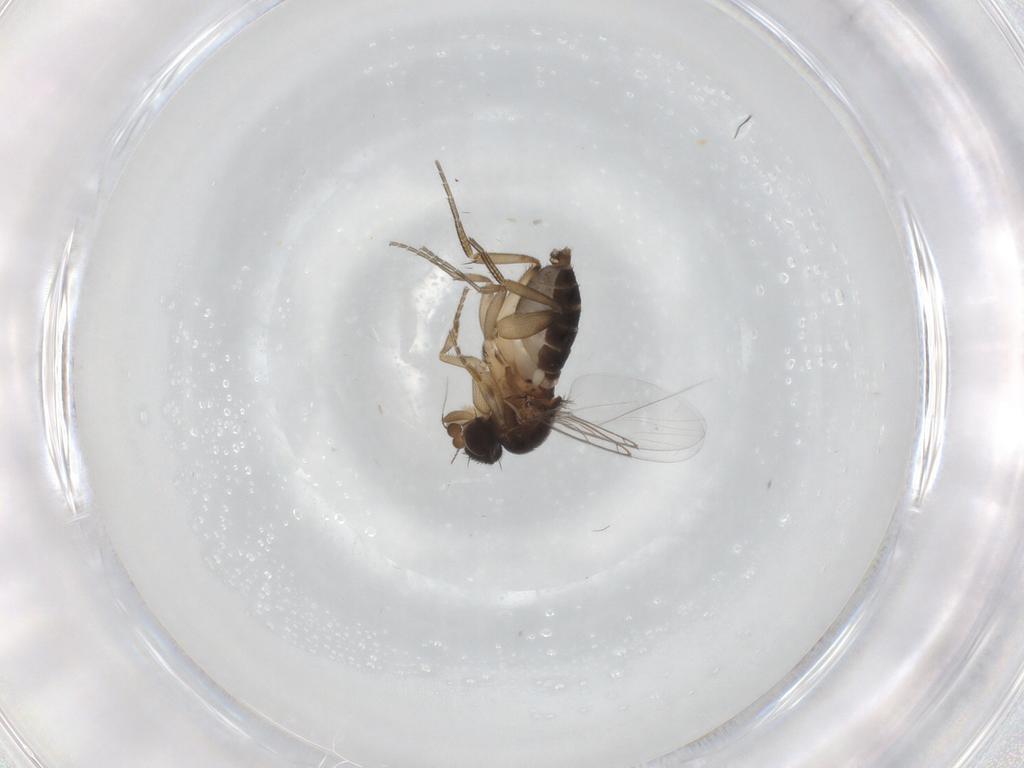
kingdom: Animalia
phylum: Arthropoda
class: Insecta
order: Diptera
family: Phoridae
